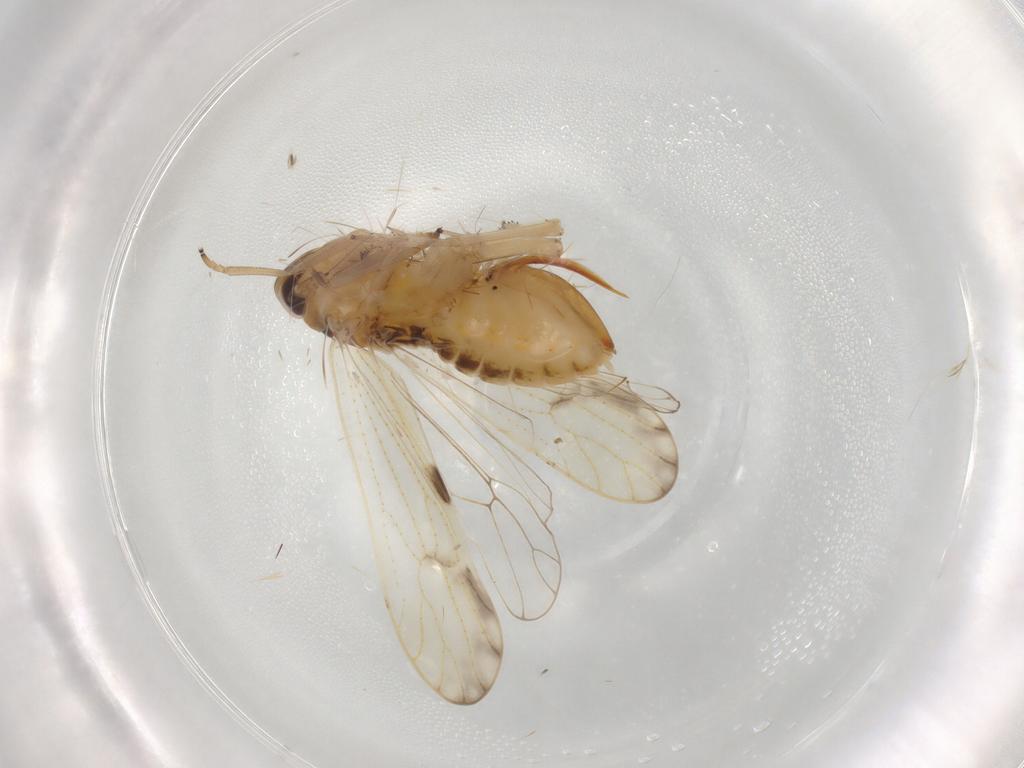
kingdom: Animalia
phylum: Arthropoda
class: Insecta
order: Hemiptera
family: Delphacidae
